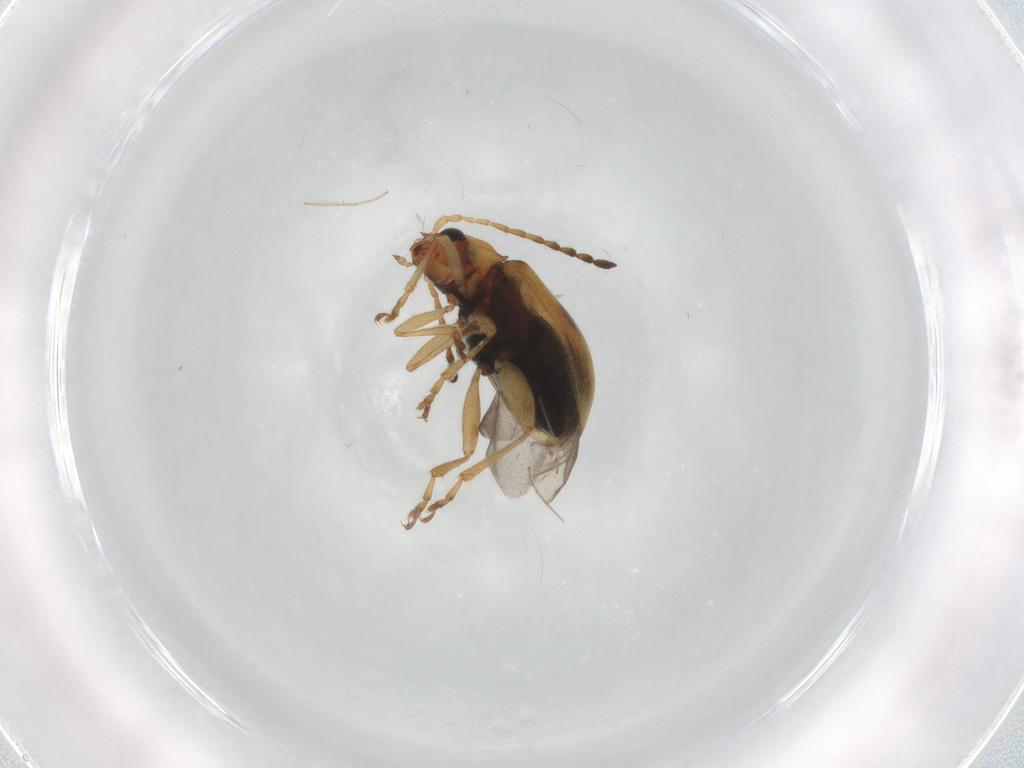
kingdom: Animalia
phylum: Arthropoda
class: Insecta
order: Coleoptera
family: Chrysomelidae
